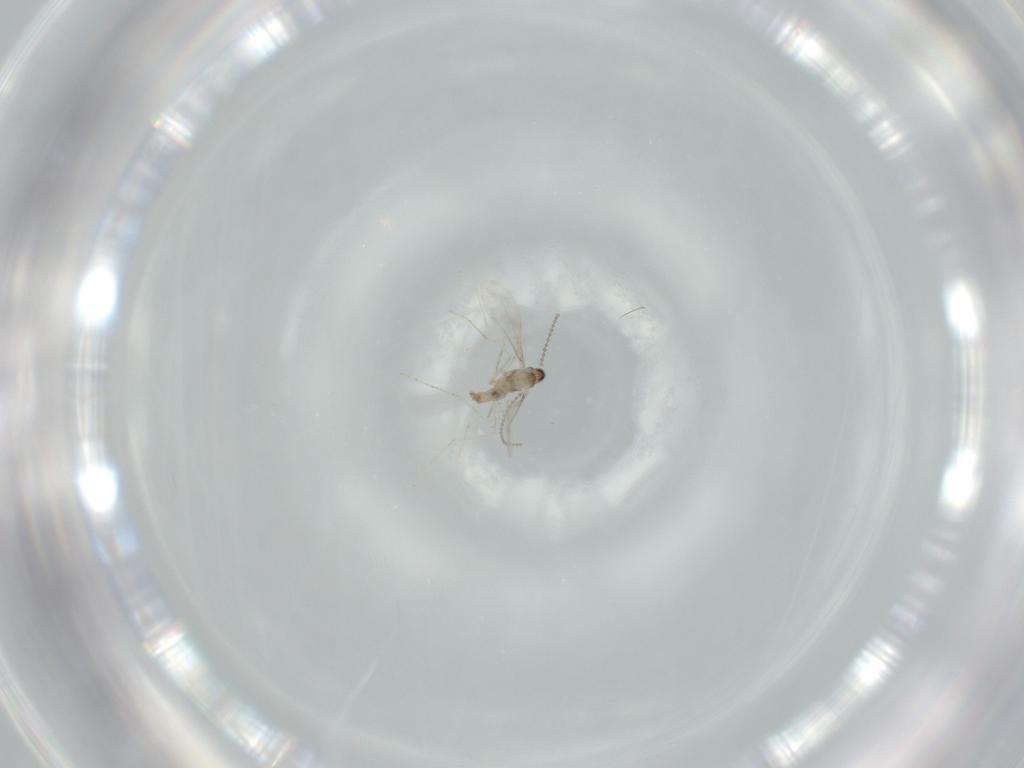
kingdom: Animalia
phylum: Arthropoda
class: Insecta
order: Diptera
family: Cecidomyiidae
